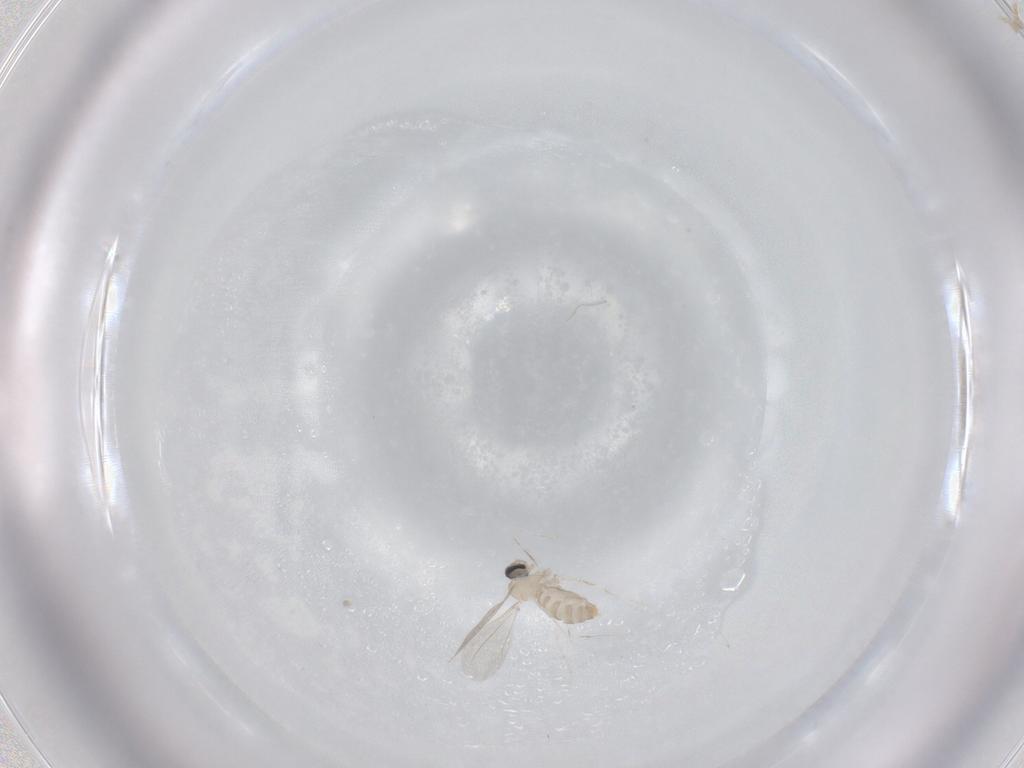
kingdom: Animalia
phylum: Arthropoda
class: Insecta
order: Diptera
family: Cecidomyiidae
